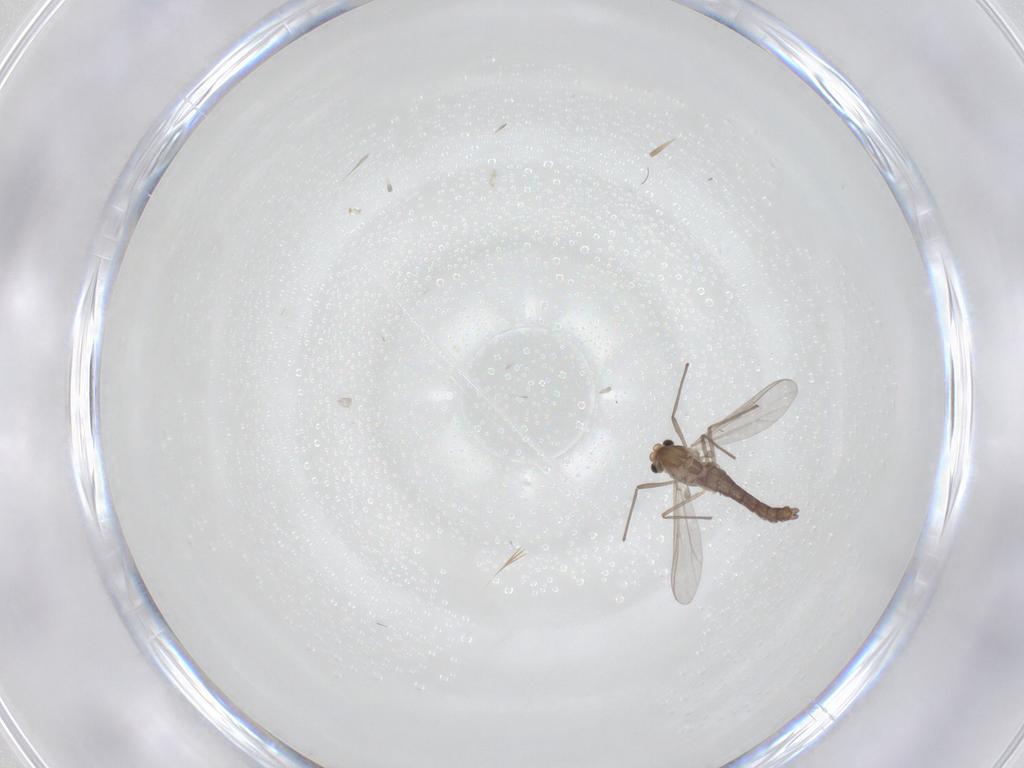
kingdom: Animalia
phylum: Arthropoda
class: Insecta
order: Diptera
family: Chironomidae
